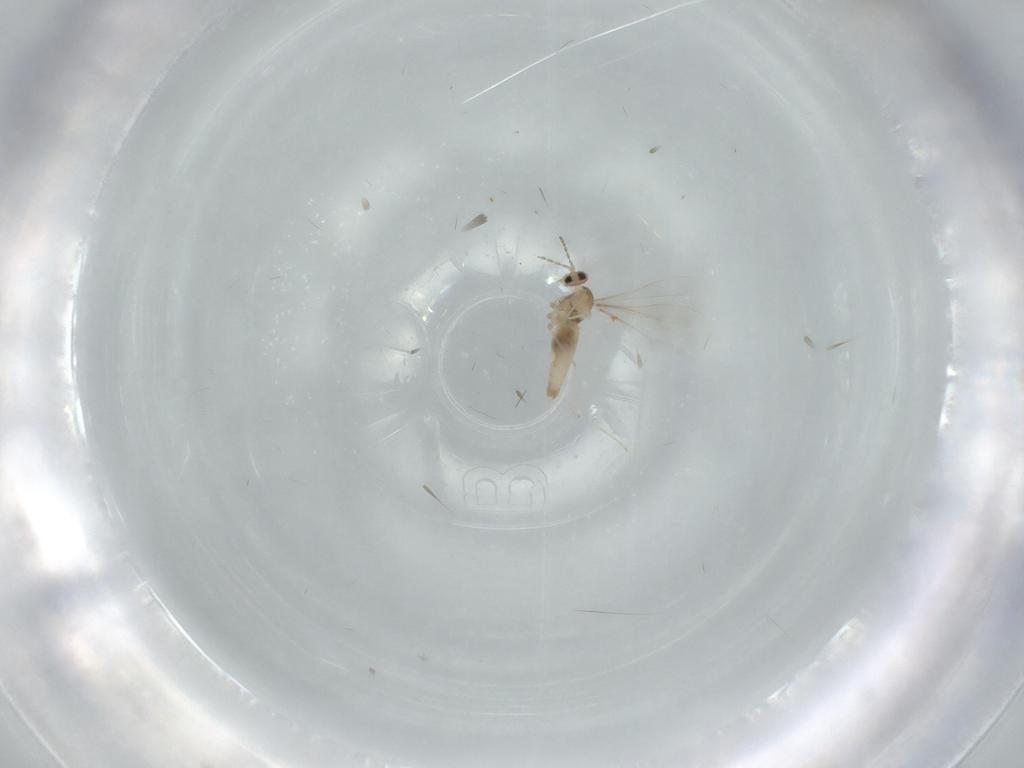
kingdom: Animalia
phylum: Arthropoda
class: Insecta
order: Diptera
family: Cecidomyiidae
